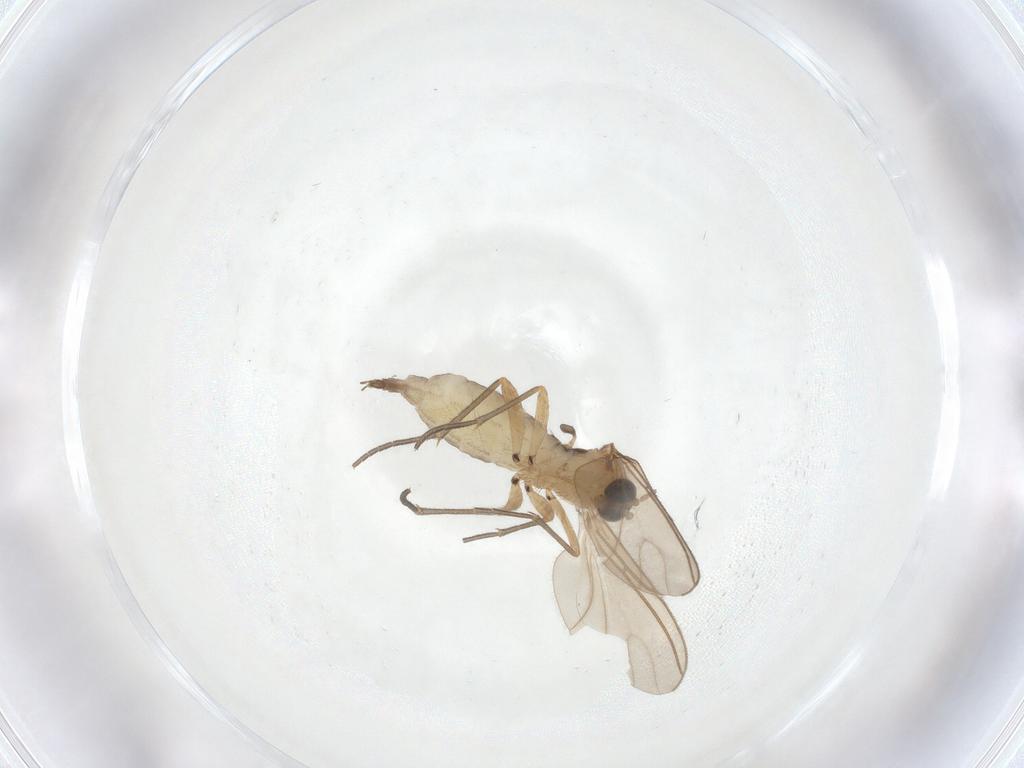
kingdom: Animalia
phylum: Arthropoda
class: Insecta
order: Diptera
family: Sciaridae
